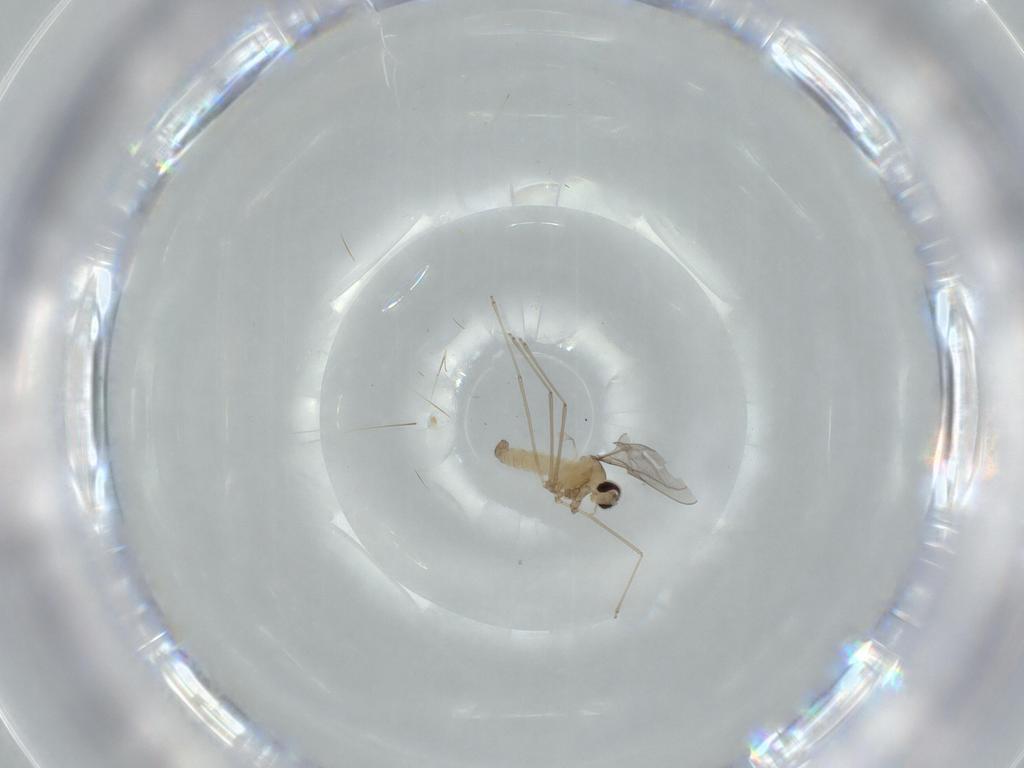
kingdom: Animalia
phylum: Arthropoda
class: Insecta
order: Diptera
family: Cecidomyiidae
